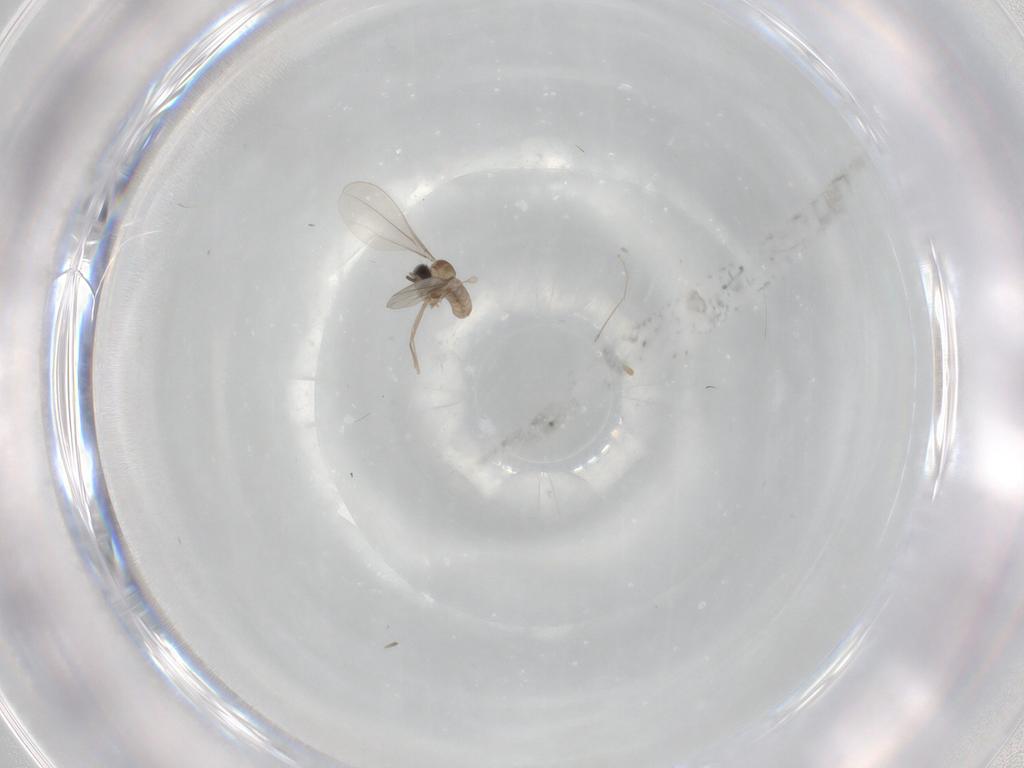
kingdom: Animalia
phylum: Arthropoda
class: Insecta
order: Diptera
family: Cecidomyiidae
